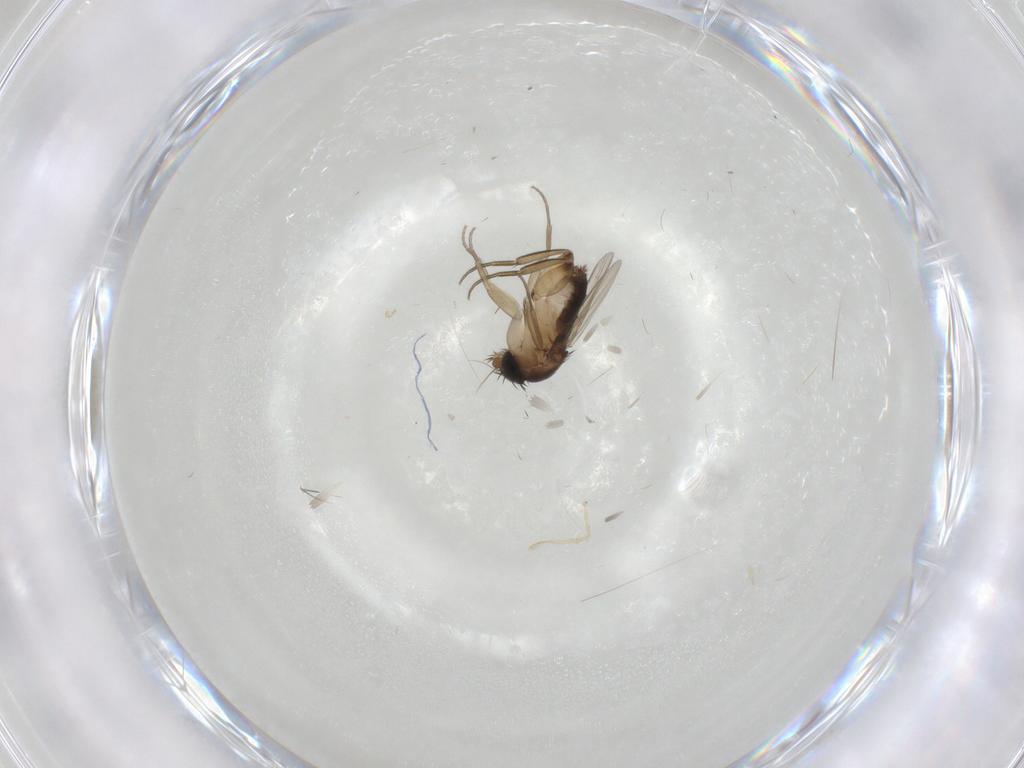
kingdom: Animalia
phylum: Arthropoda
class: Insecta
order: Diptera
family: Phoridae
